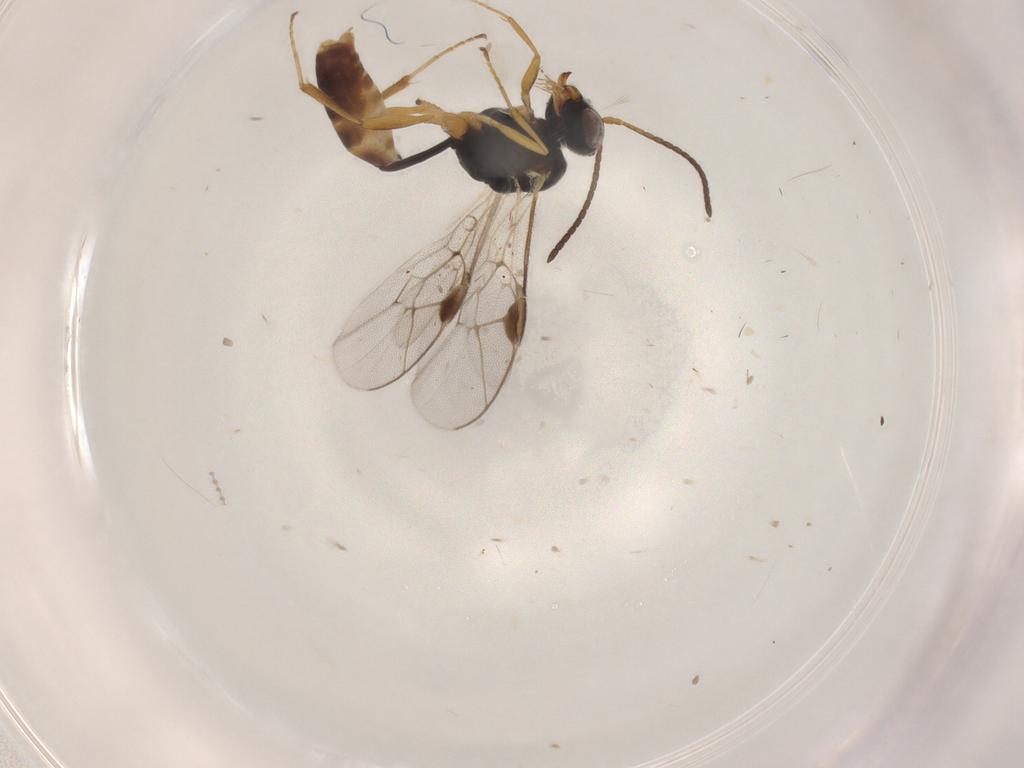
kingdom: Animalia
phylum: Arthropoda
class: Insecta
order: Hymenoptera
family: Ichneumonidae
